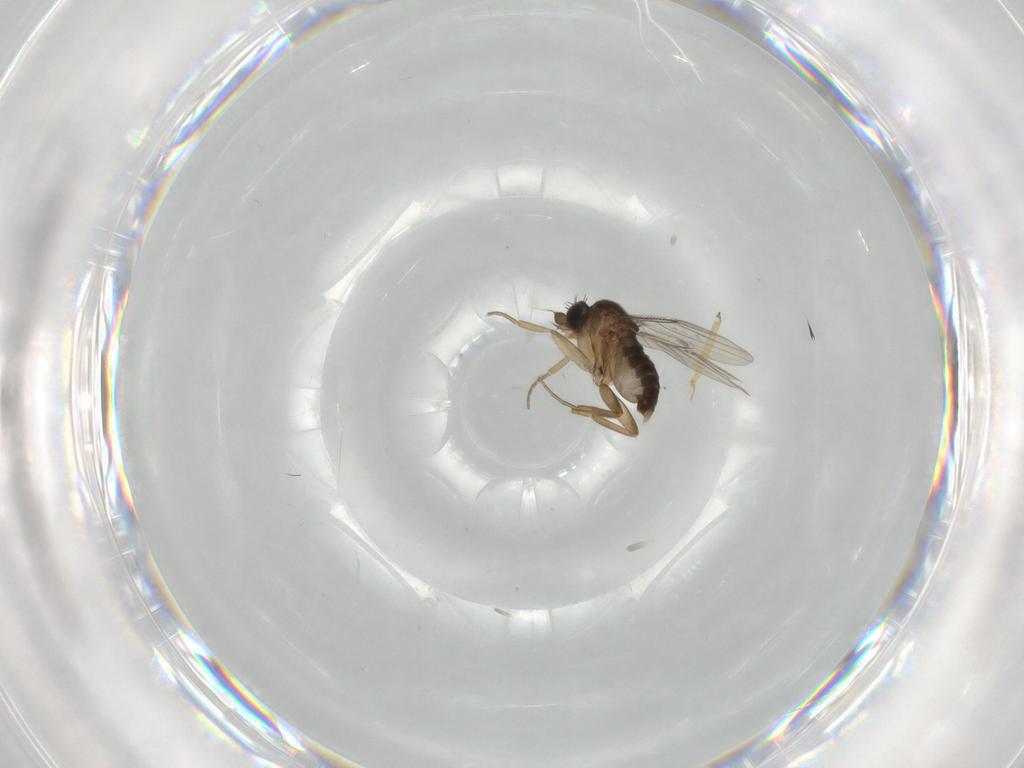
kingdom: Animalia
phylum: Arthropoda
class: Insecta
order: Diptera
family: Phoridae
